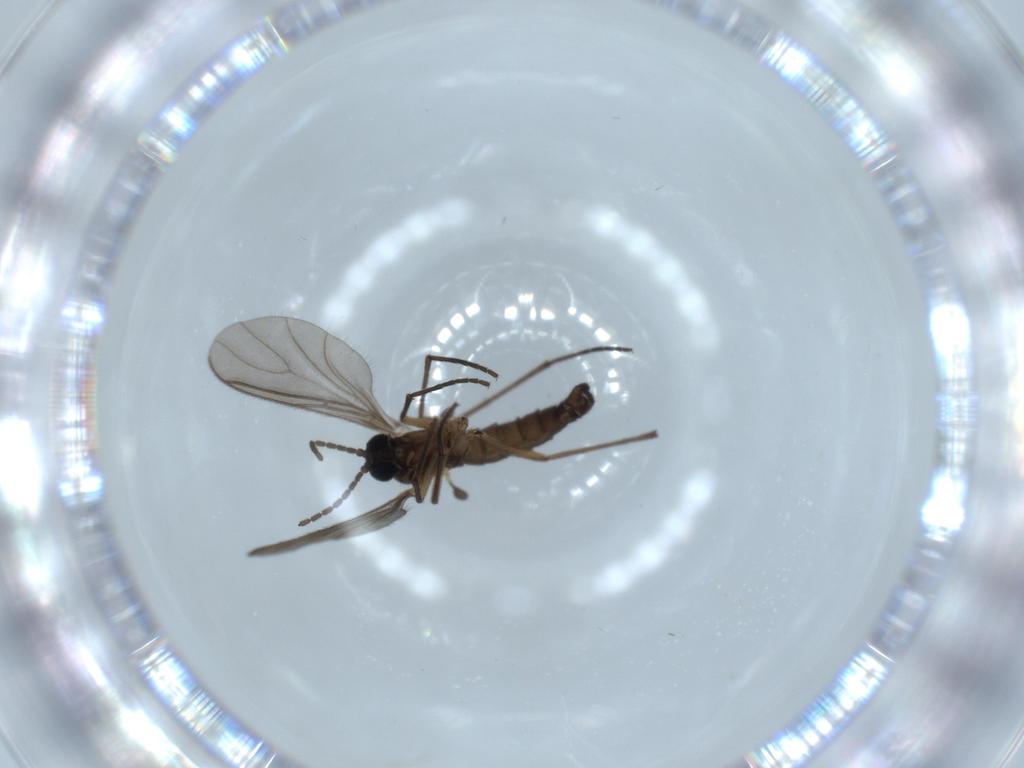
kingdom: Animalia
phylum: Arthropoda
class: Insecta
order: Diptera
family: Sciaridae
